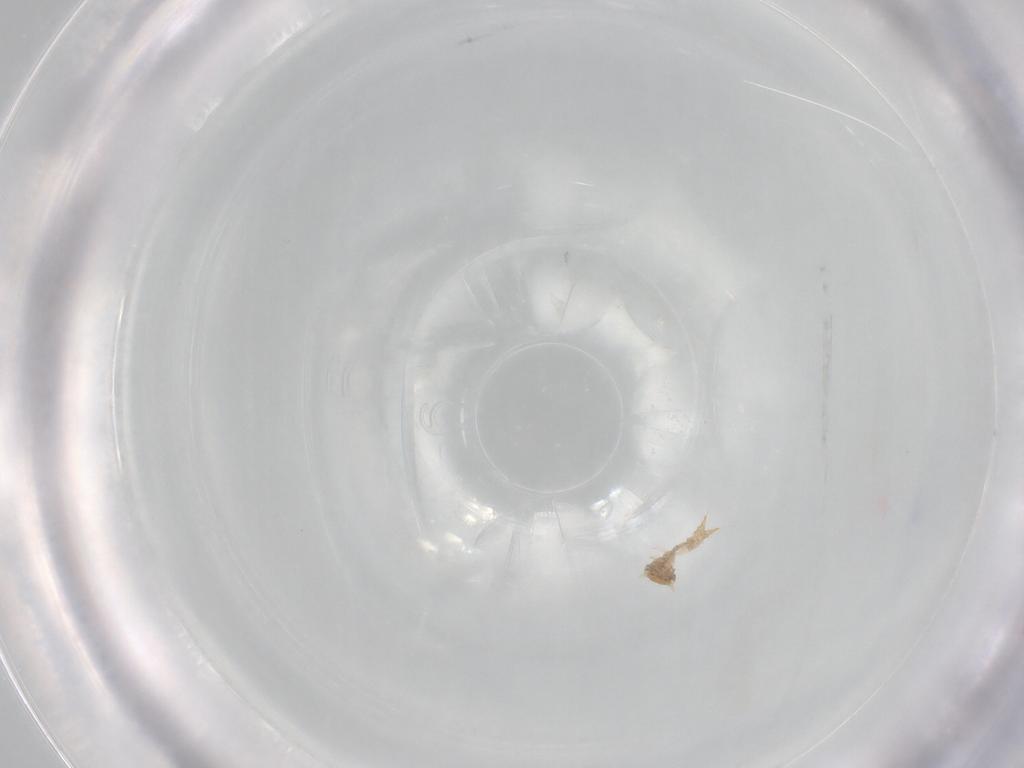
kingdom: Animalia
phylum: Arthropoda
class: Insecta
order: Coleoptera
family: Nitidulidae
